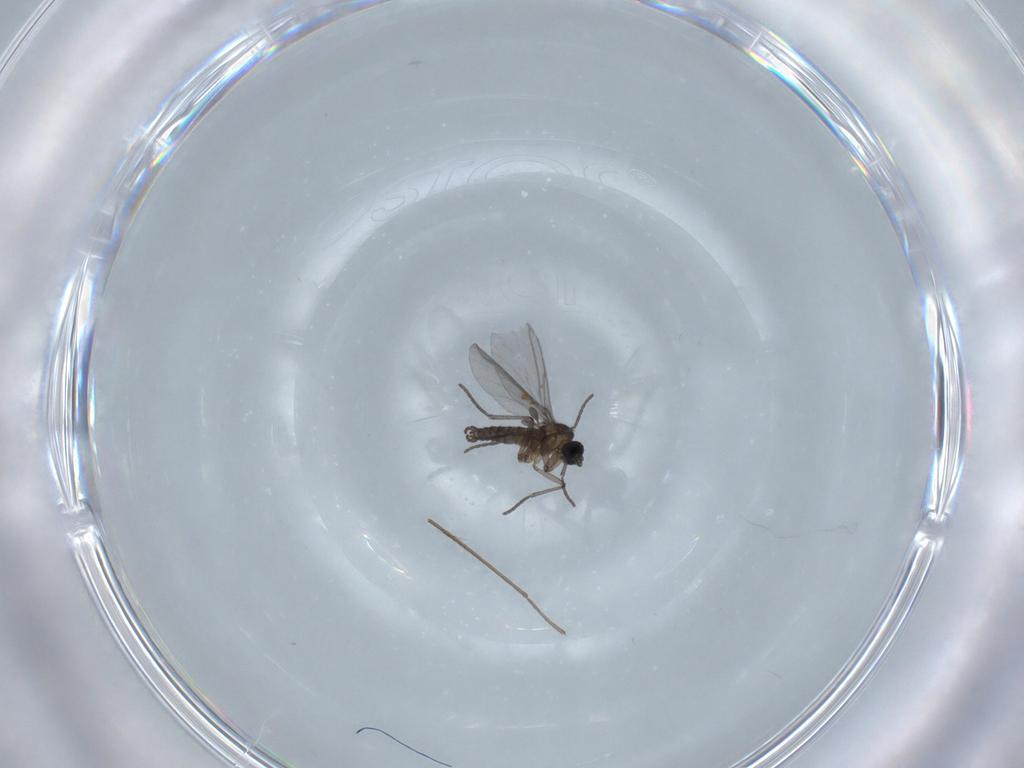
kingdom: Animalia
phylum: Arthropoda
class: Insecta
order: Diptera
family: Chironomidae
